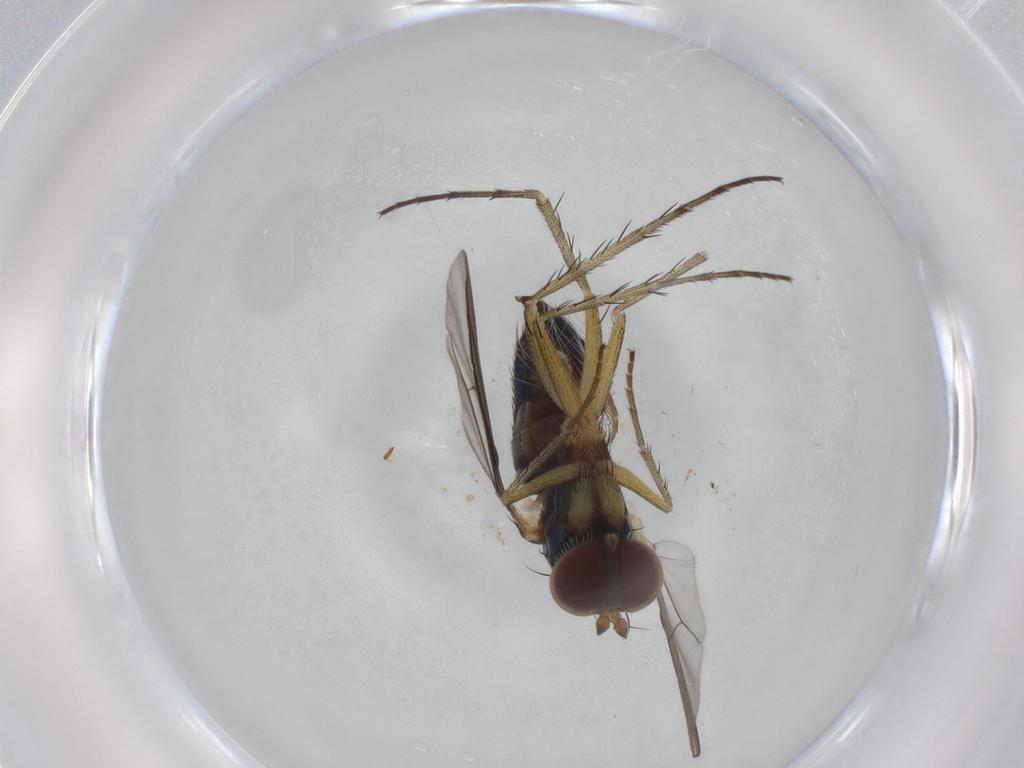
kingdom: Animalia
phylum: Arthropoda
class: Insecta
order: Diptera
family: Dolichopodidae
